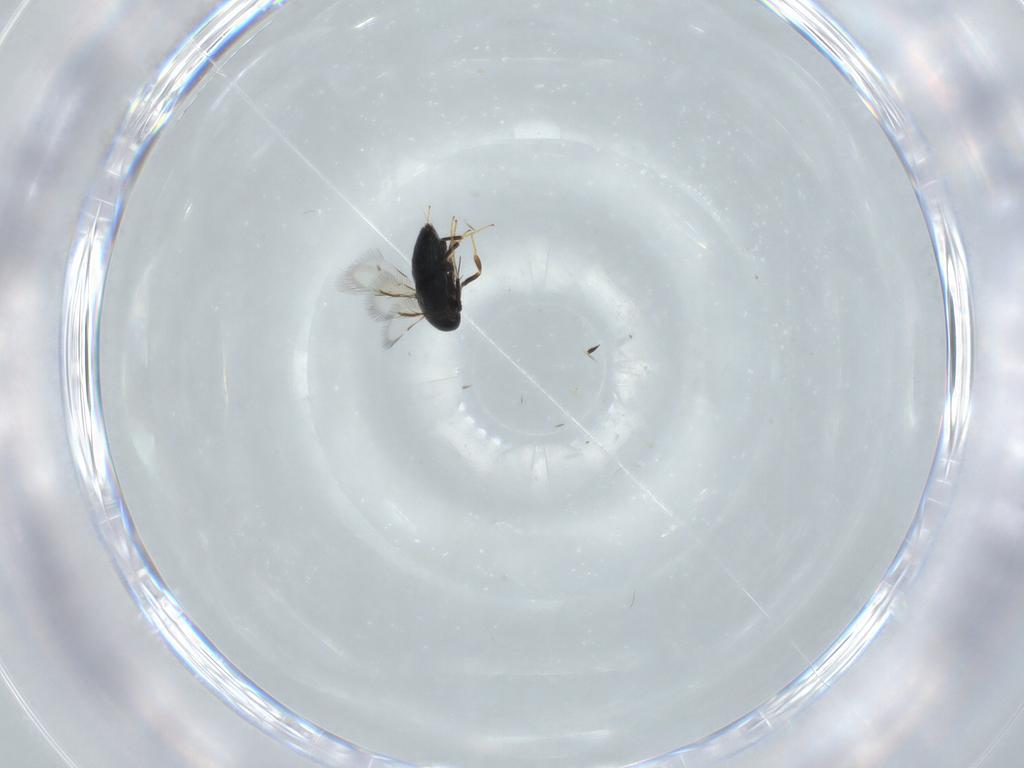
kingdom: Animalia
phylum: Arthropoda
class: Insecta
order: Hymenoptera
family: Signiphoridae
